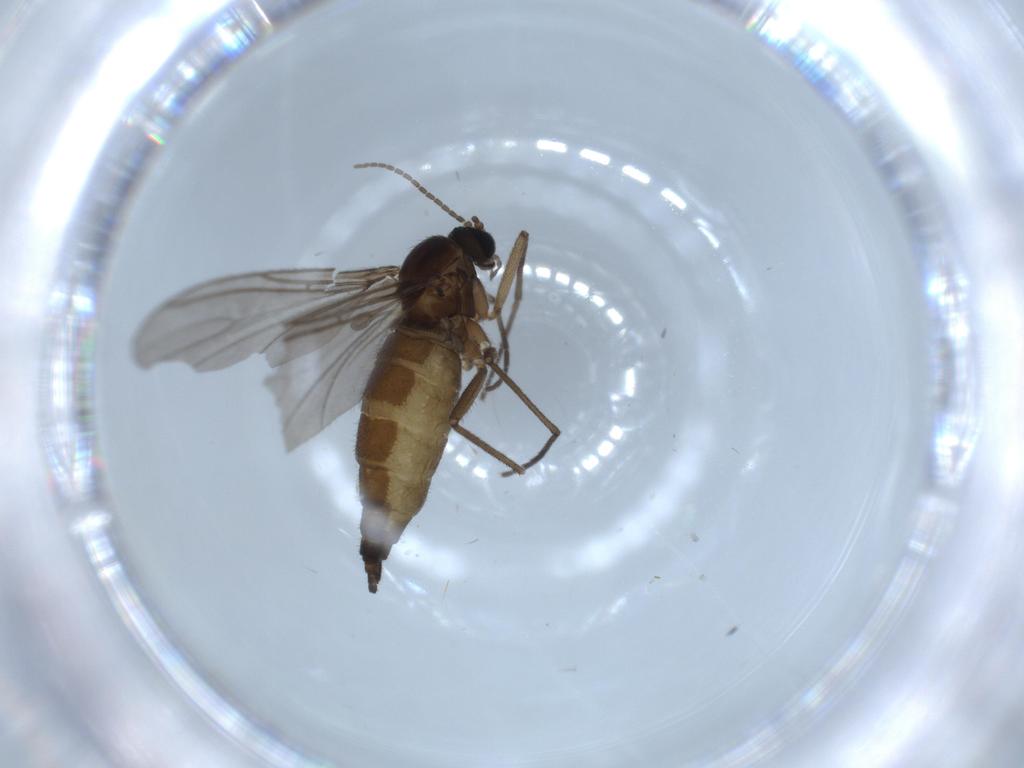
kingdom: Animalia
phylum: Arthropoda
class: Insecta
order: Diptera
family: Sciaridae
